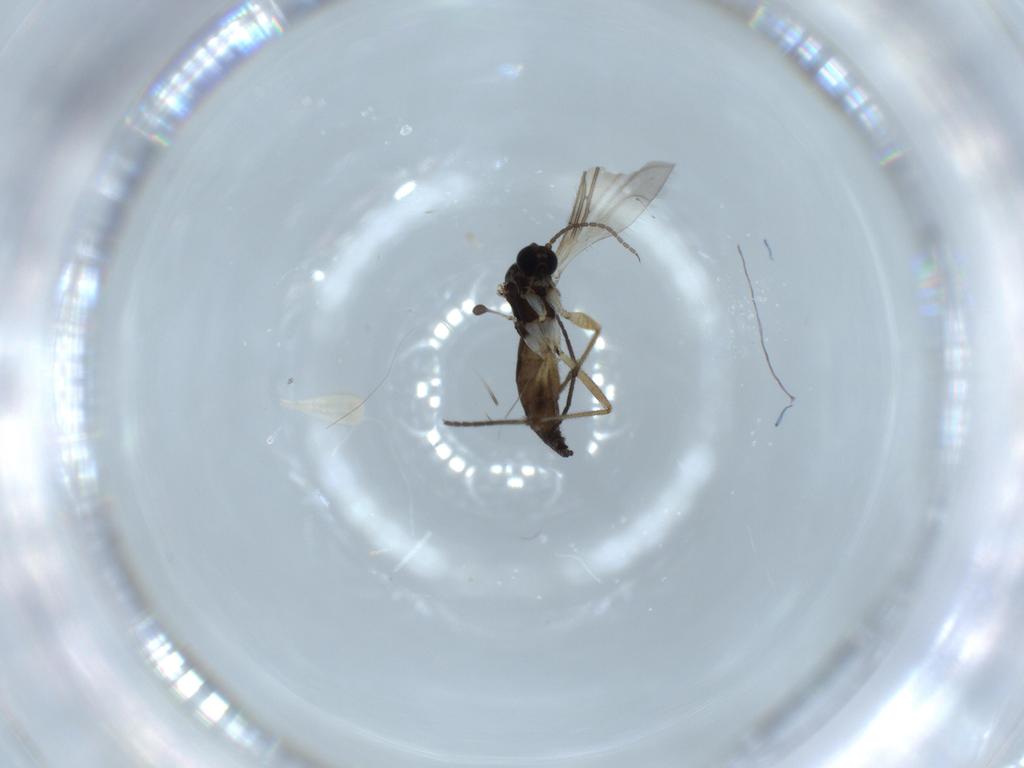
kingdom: Animalia
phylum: Arthropoda
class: Insecta
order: Diptera
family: Sciaridae
